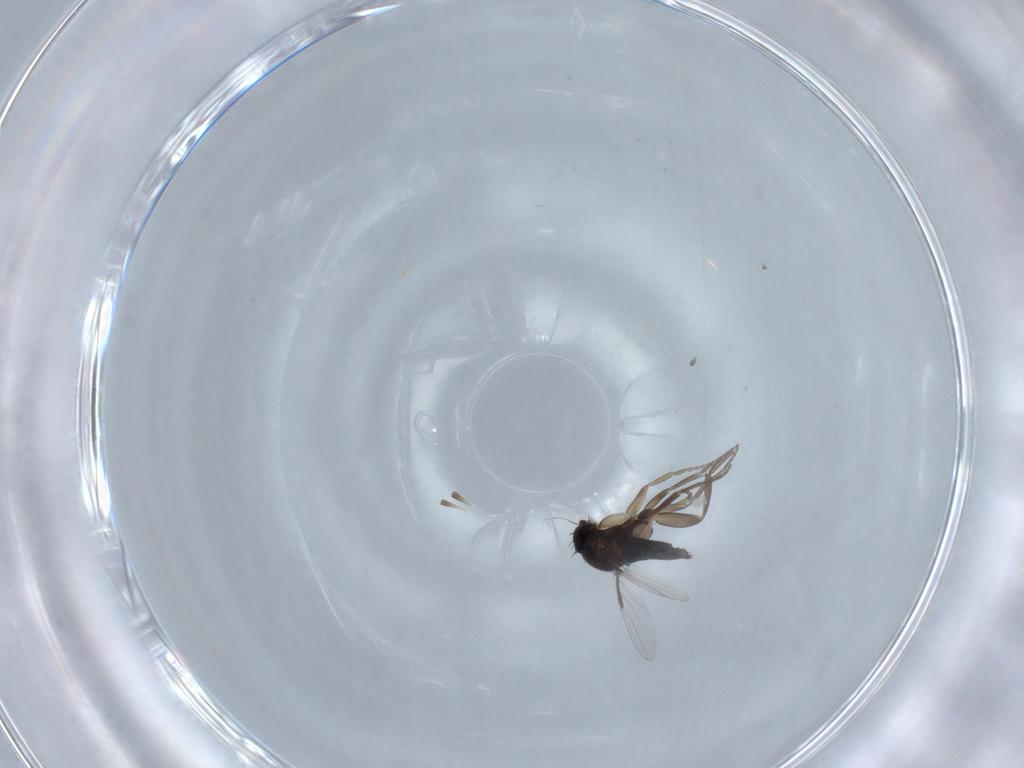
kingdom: Animalia
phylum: Arthropoda
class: Insecta
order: Diptera
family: Phoridae
